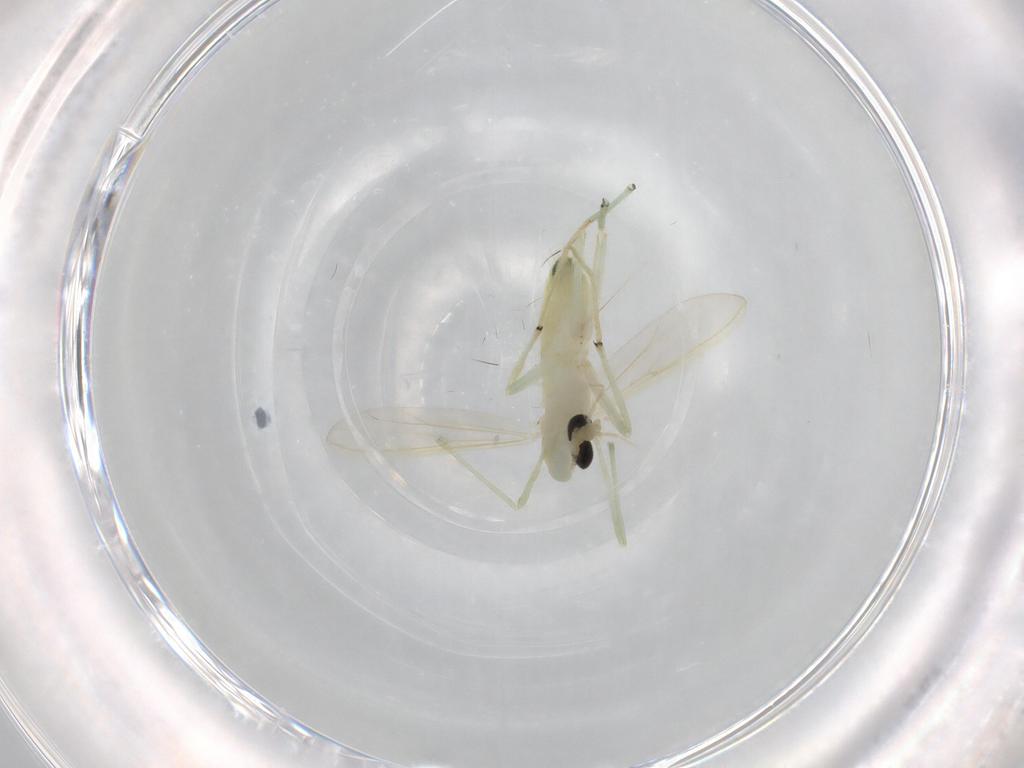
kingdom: Animalia
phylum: Arthropoda
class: Insecta
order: Diptera
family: Chironomidae
